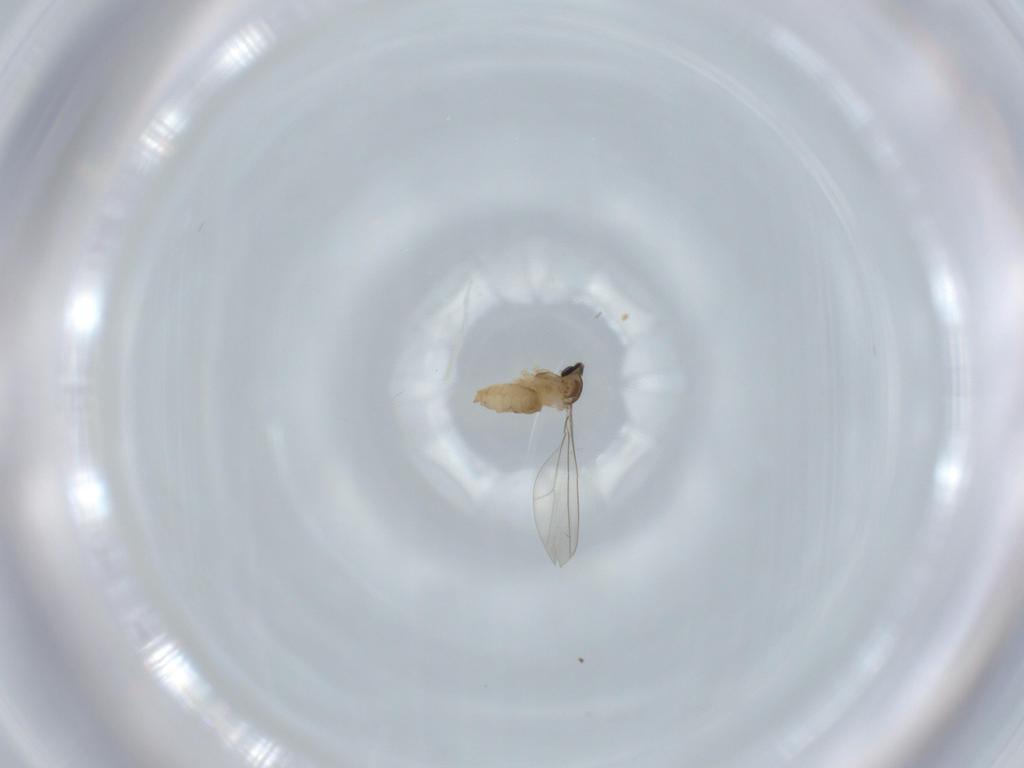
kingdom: Animalia
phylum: Arthropoda
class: Insecta
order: Diptera
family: Cecidomyiidae
